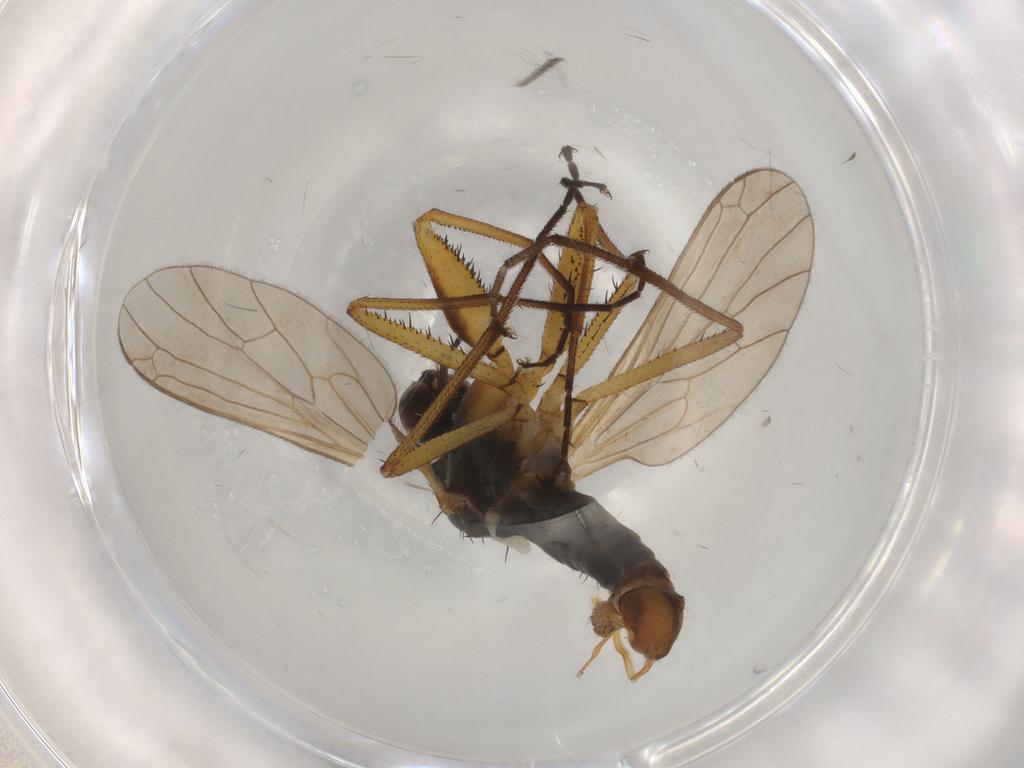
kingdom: Animalia
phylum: Arthropoda
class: Insecta
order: Diptera
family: Empididae
